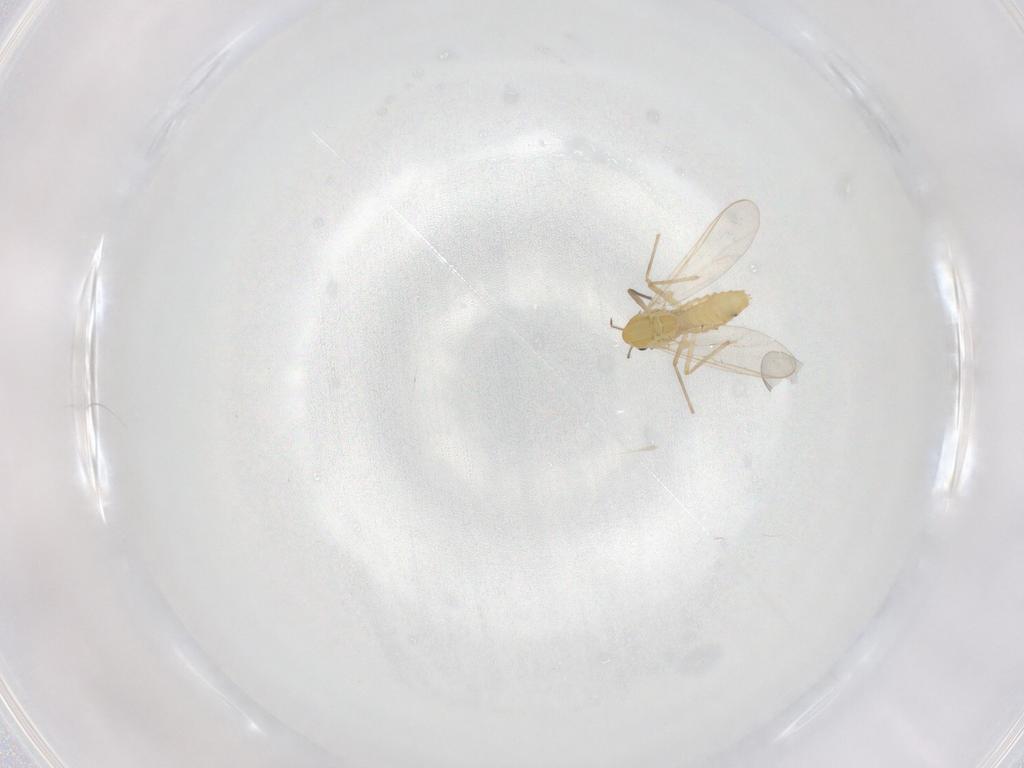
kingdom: Animalia
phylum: Arthropoda
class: Insecta
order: Diptera
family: Chironomidae
